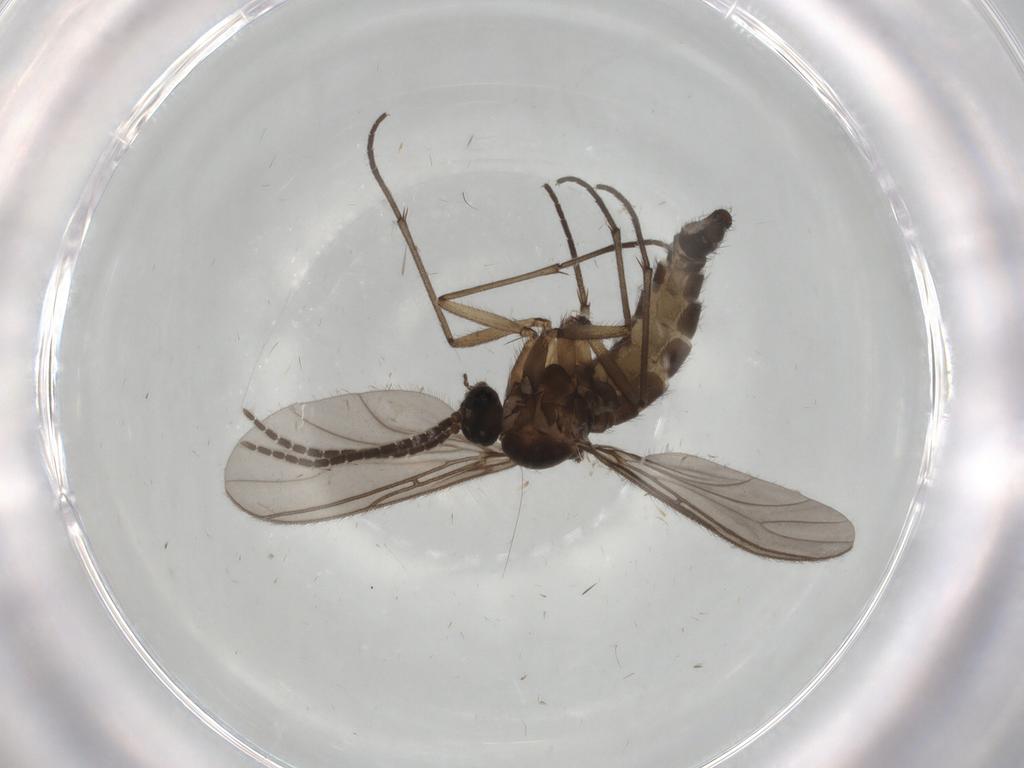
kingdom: Animalia
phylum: Arthropoda
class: Insecta
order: Diptera
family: Sciaridae
